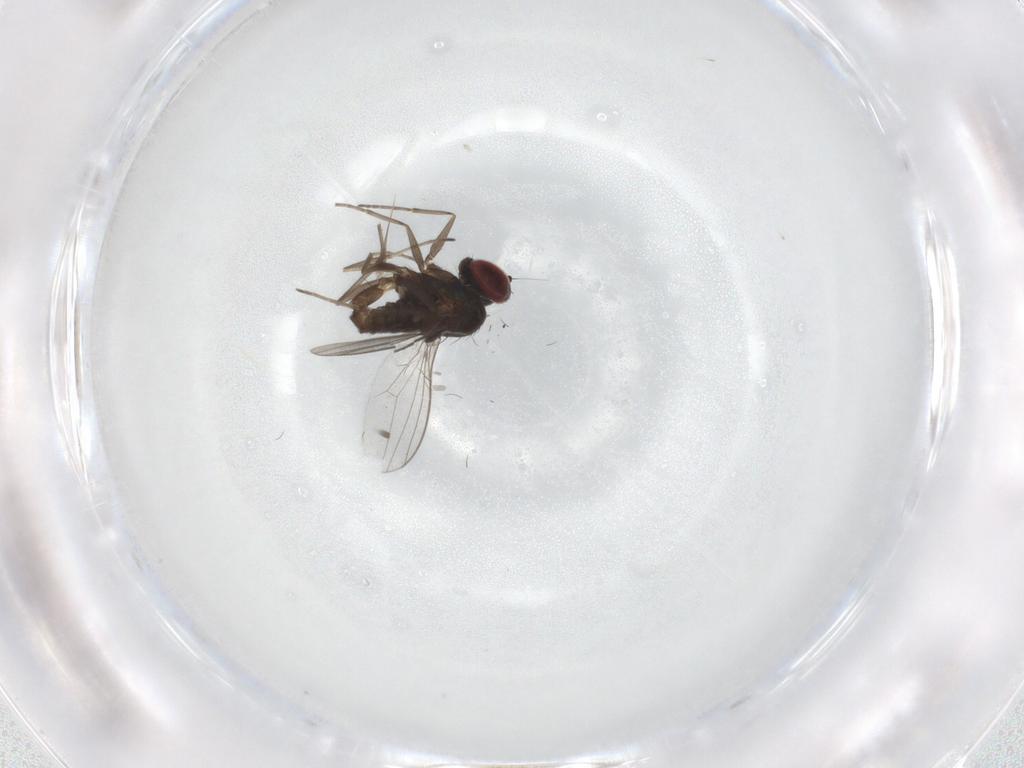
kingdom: Animalia
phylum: Arthropoda
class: Insecta
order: Diptera
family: Dolichopodidae
